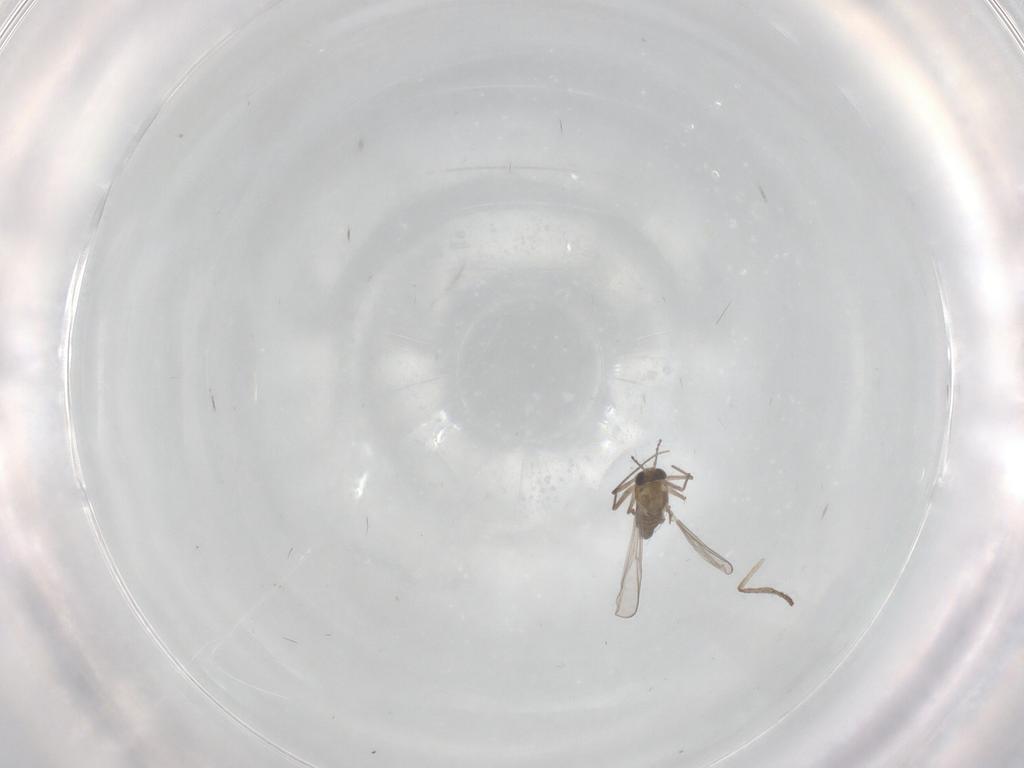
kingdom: Animalia
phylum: Arthropoda
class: Insecta
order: Diptera
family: Chironomidae
